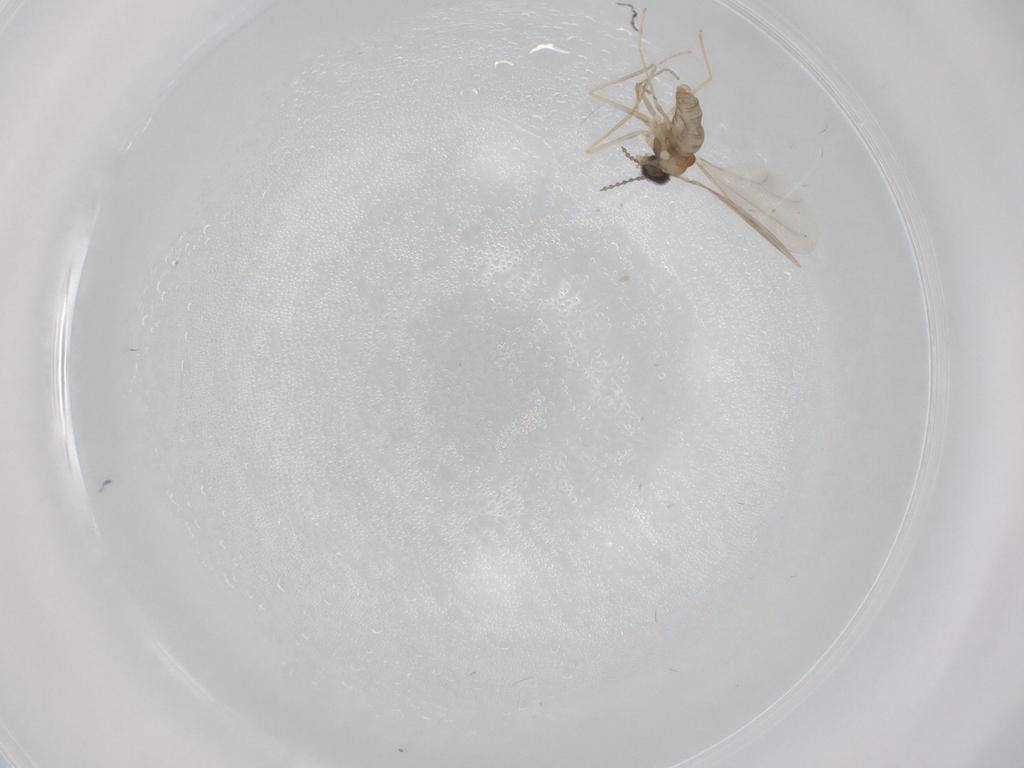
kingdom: Animalia
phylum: Arthropoda
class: Insecta
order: Diptera
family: Cecidomyiidae
